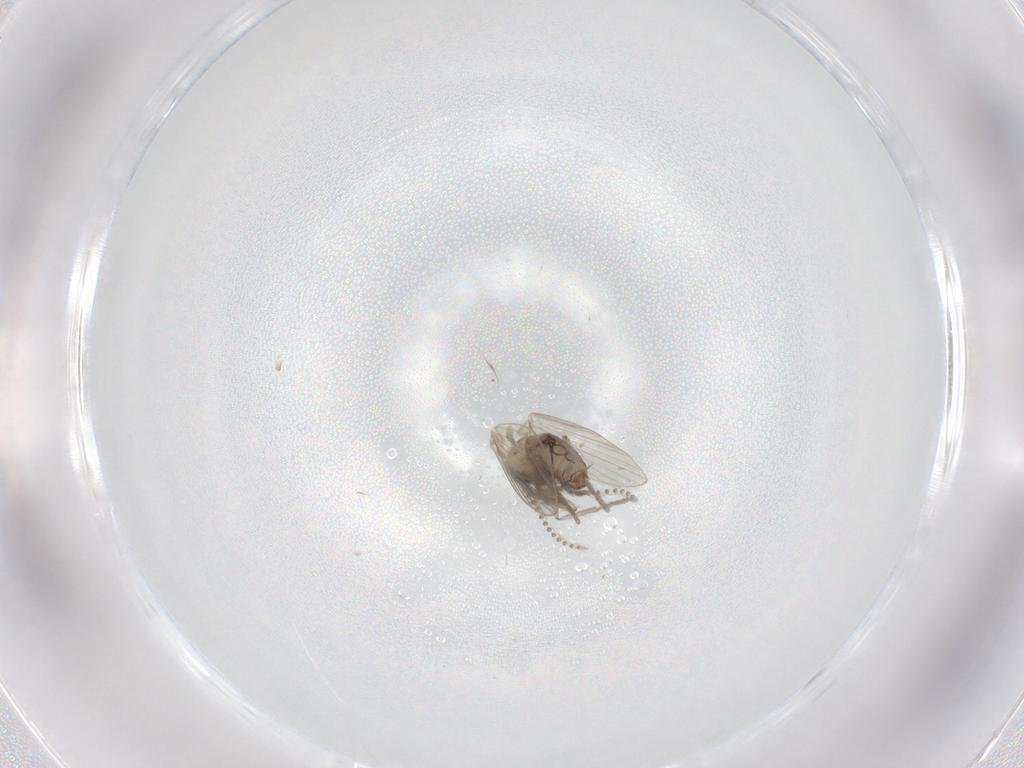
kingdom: Animalia
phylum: Arthropoda
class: Insecta
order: Diptera
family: Psychodidae
